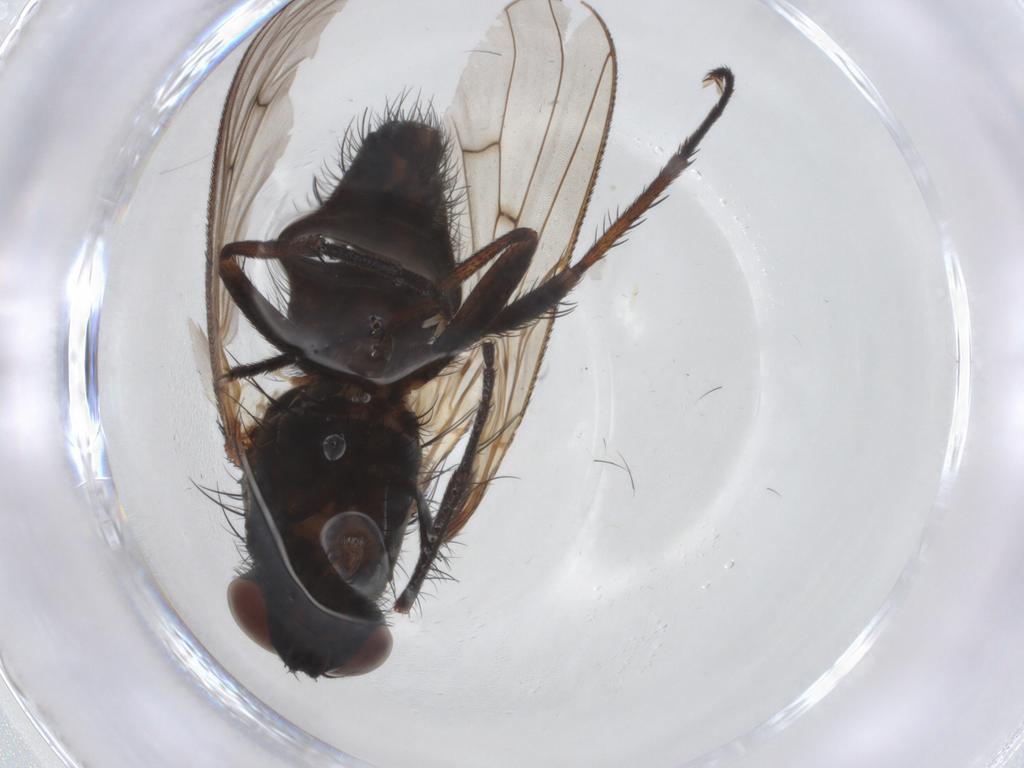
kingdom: Animalia
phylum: Arthropoda
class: Insecta
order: Diptera
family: Anthomyiidae
